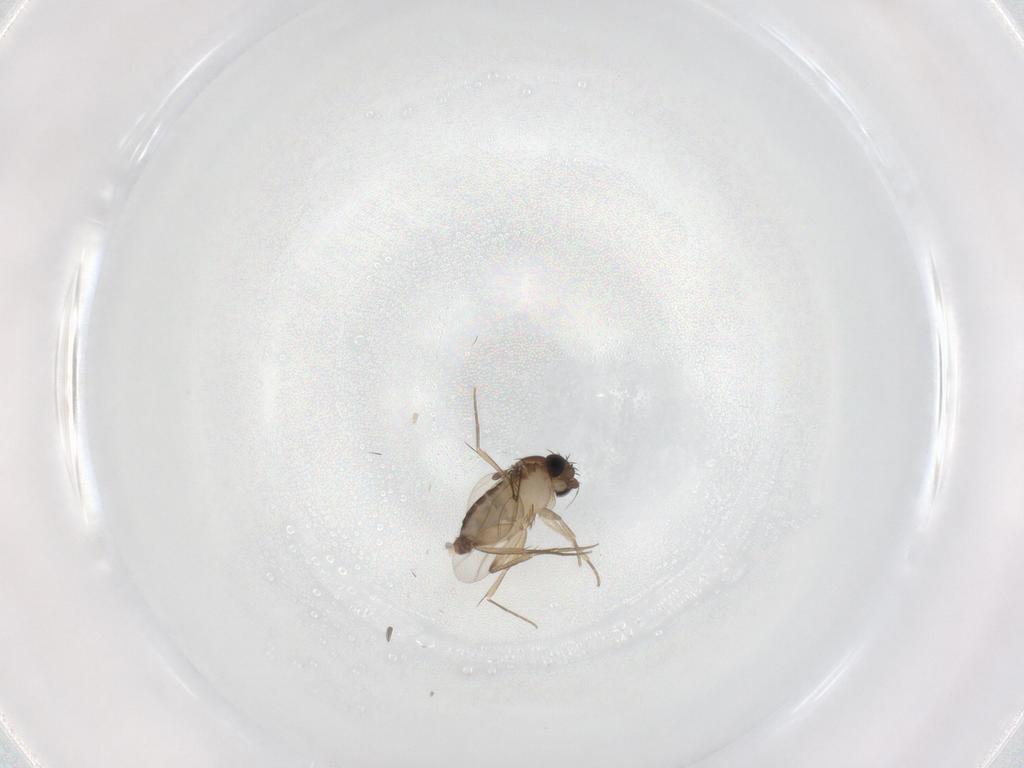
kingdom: Animalia
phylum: Arthropoda
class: Insecta
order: Diptera
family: Phoridae
